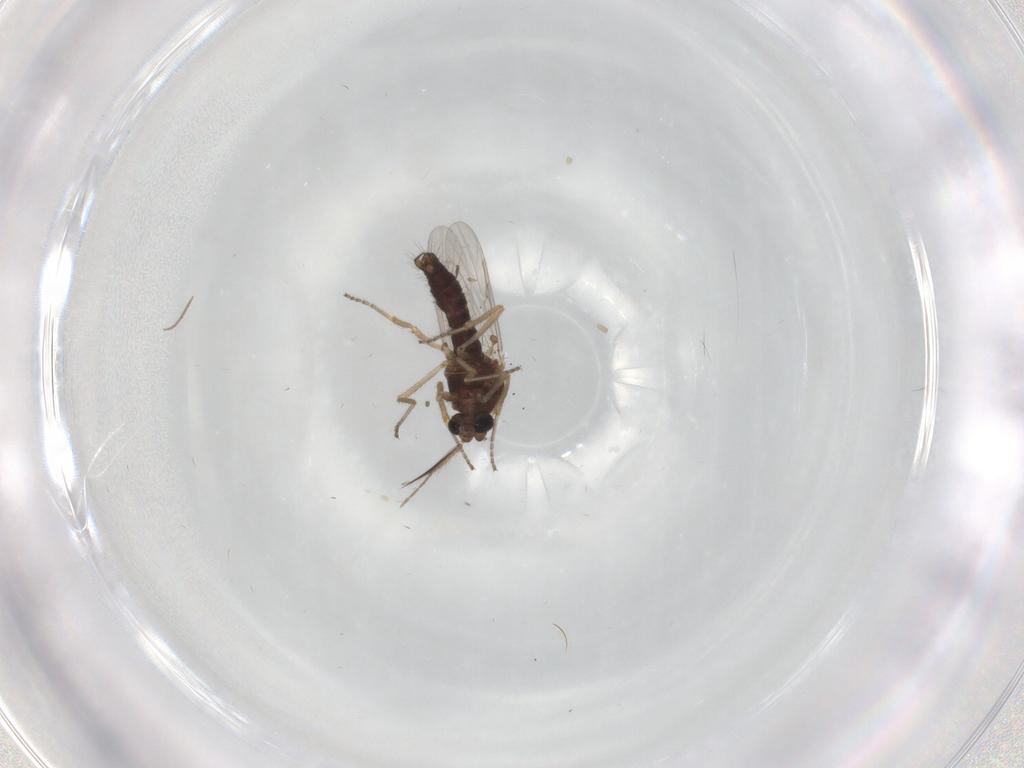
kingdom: Animalia
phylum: Arthropoda
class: Insecta
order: Diptera
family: Ceratopogonidae
